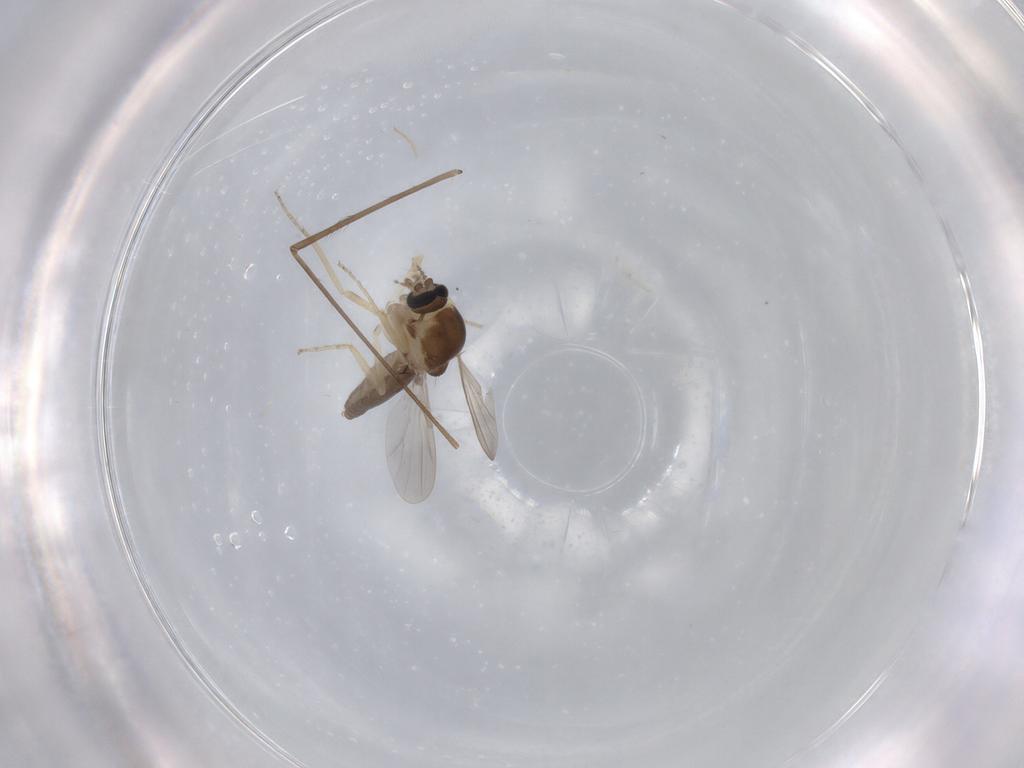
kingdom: Animalia
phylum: Arthropoda
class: Insecta
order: Diptera
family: Ceratopogonidae
